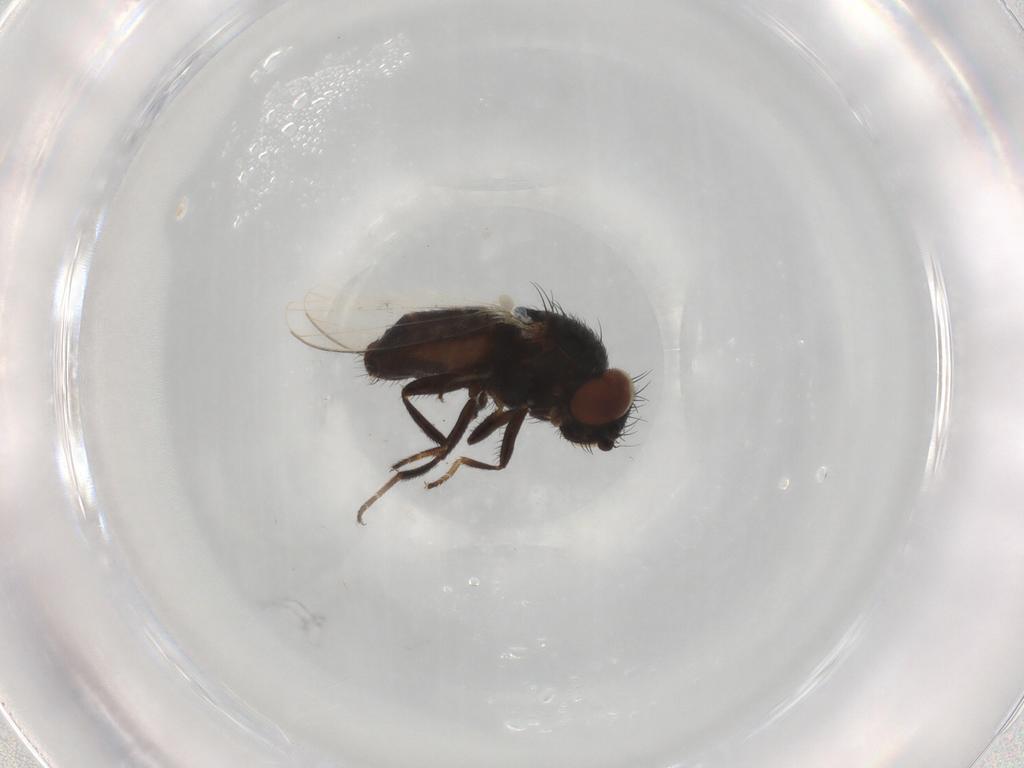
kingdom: Animalia
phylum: Arthropoda
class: Insecta
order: Diptera
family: Milichiidae
